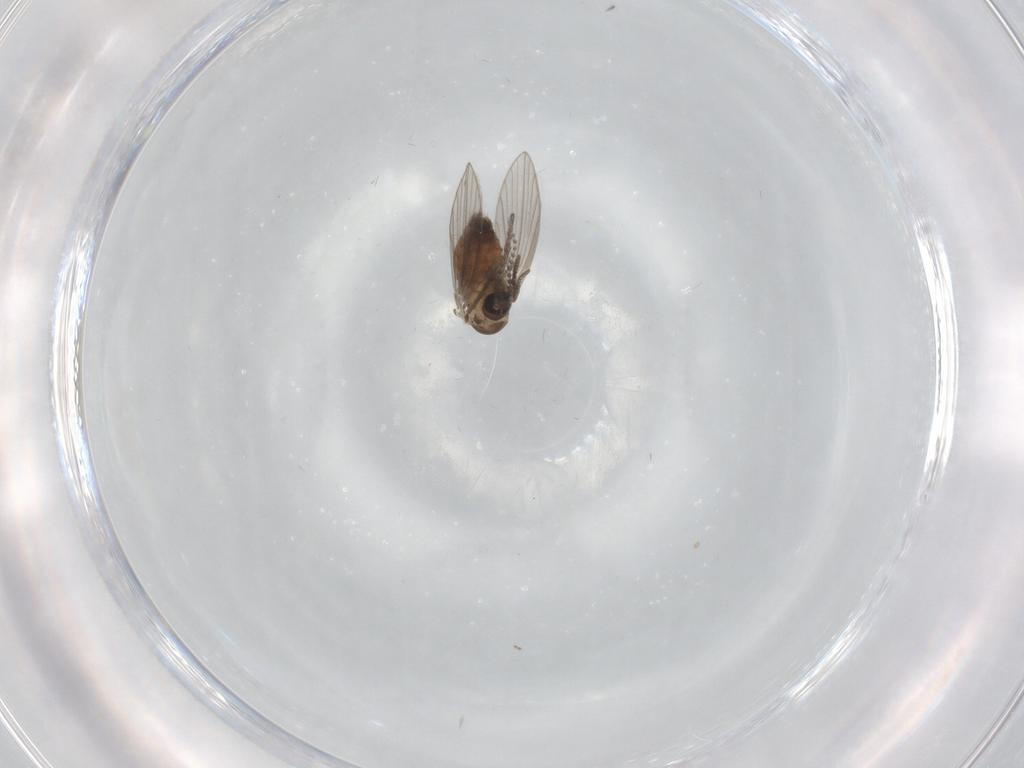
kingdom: Animalia
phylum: Arthropoda
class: Insecta
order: Diptera
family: Psychodidae
